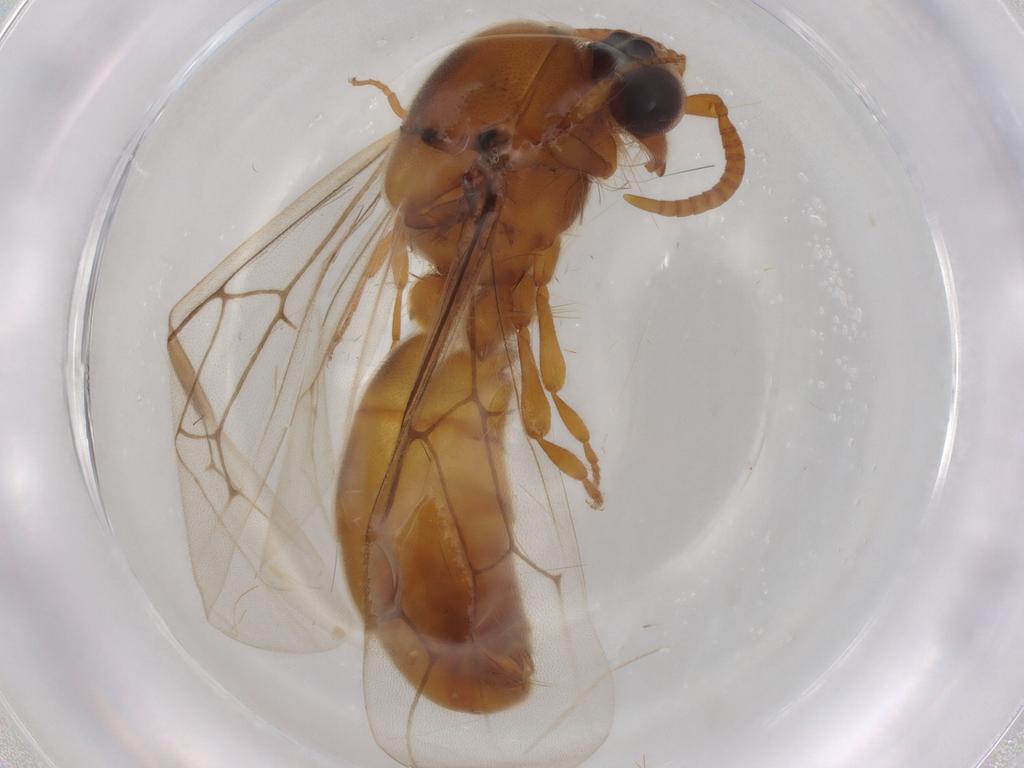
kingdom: Animalia
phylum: Arthropoda
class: Insecta
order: Hymenoptera
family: Formicidae
